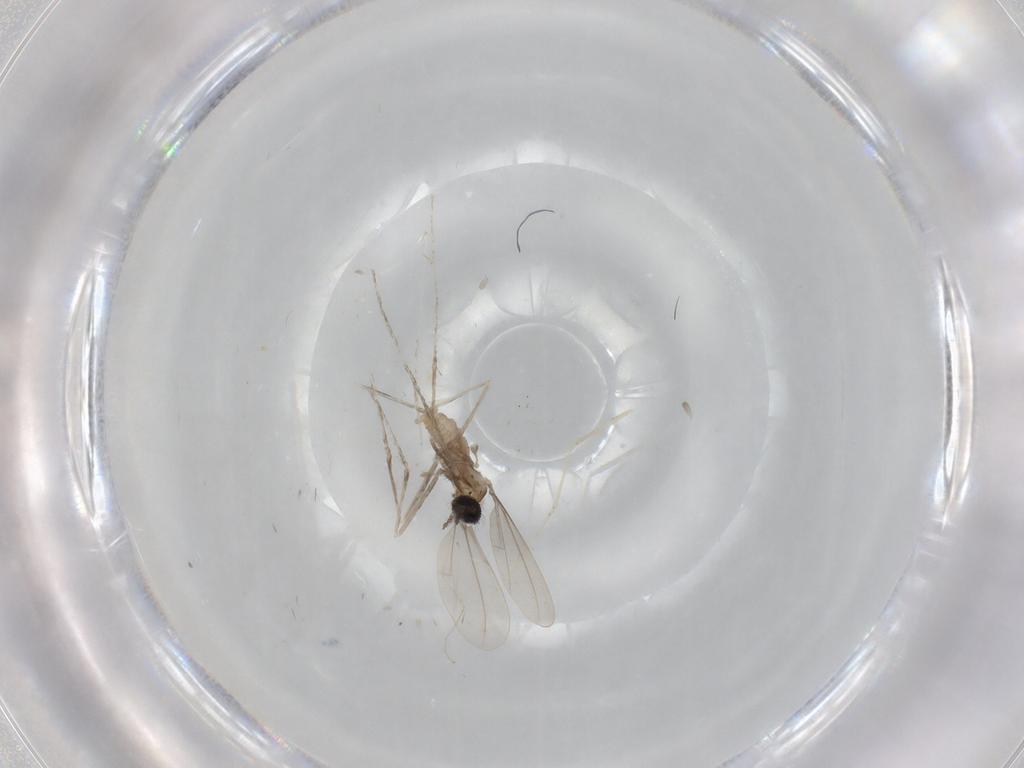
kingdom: Animalia
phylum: Arthropoda
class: Insecta
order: Diptera
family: Cecidomyiidae
